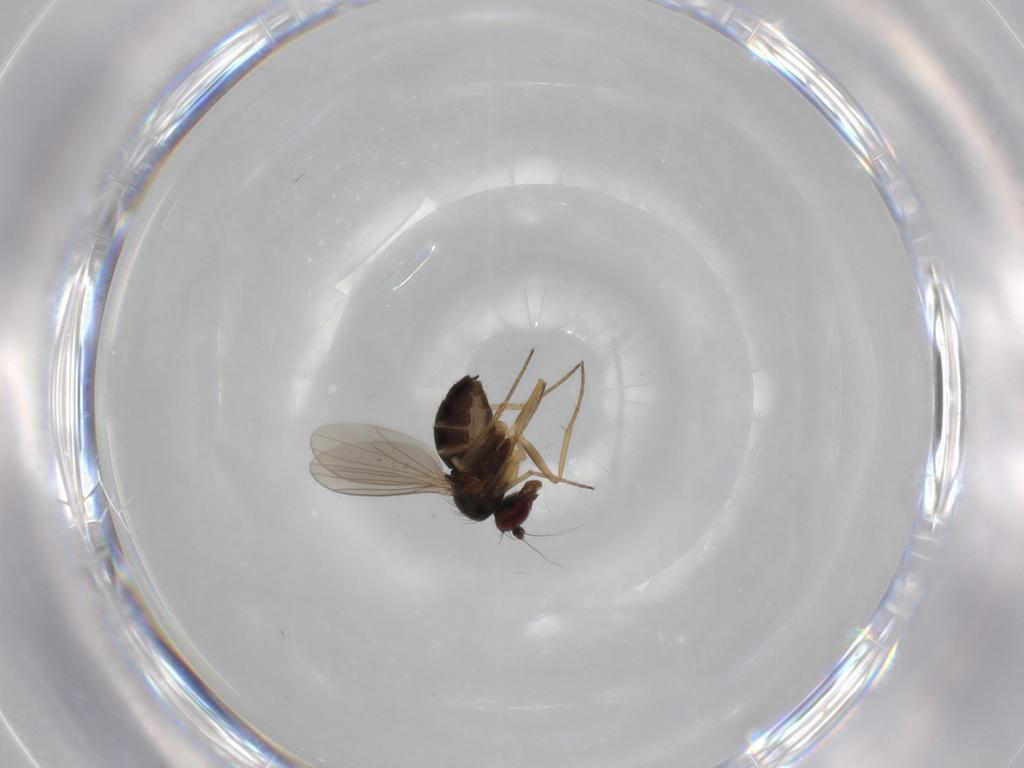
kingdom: Animalia
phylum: Arthropoda
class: Insecta
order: Diptera
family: Dolichopodidae
